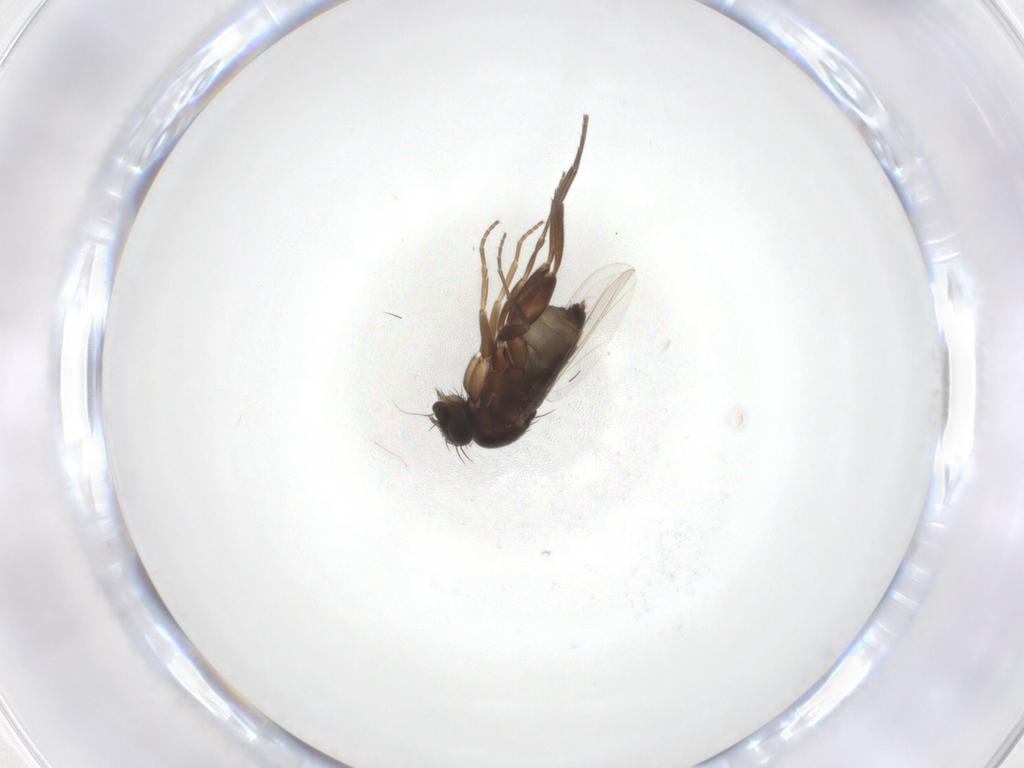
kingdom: Animalia
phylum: Arthropoda
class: Insecta
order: Diptera
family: Phoridae
